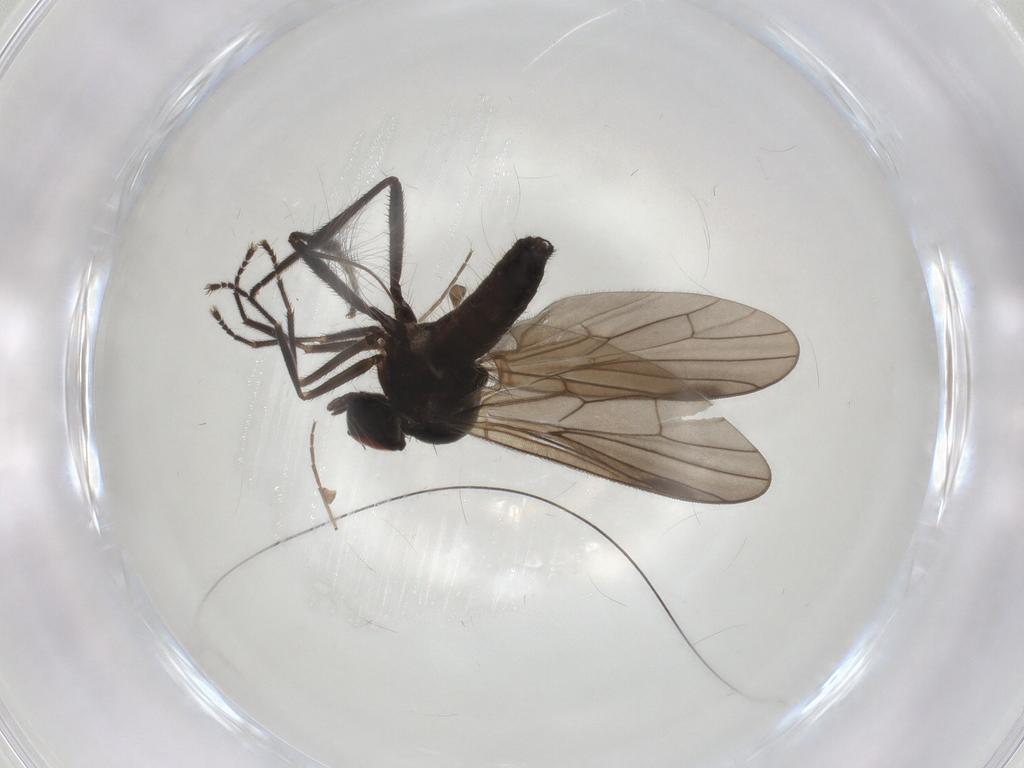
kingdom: Animalia
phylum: Arthropoda
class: Insecta
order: Diptera
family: Hybotidae
